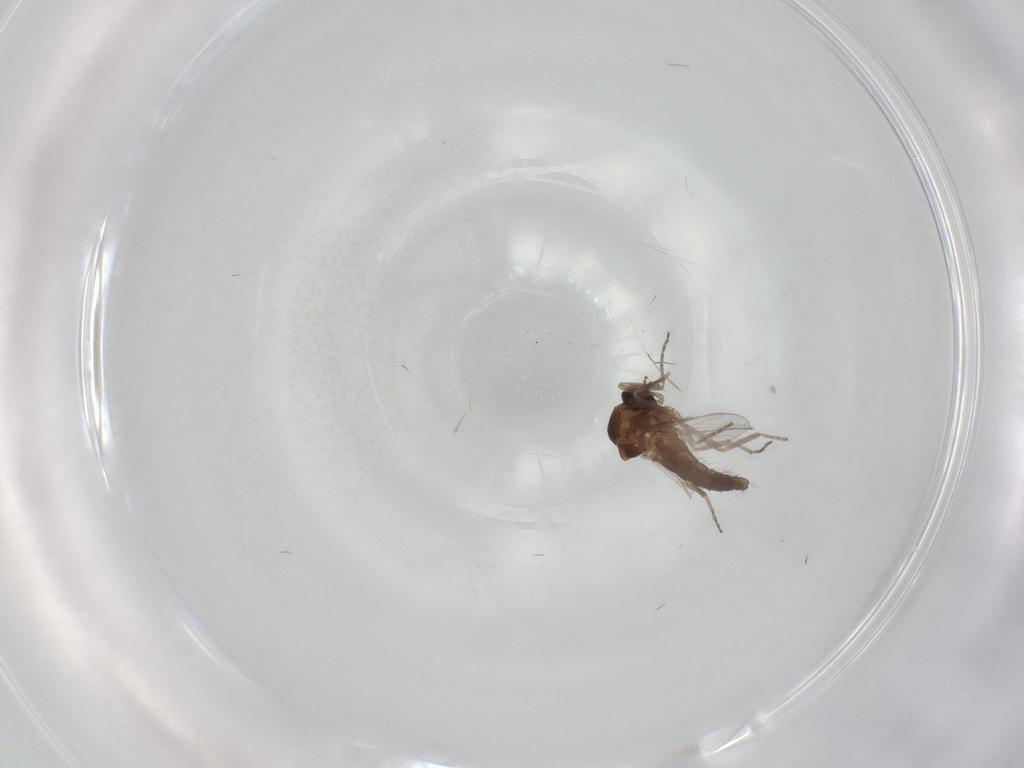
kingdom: Animalia
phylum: Arthropoda
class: Insecta
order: Diptera
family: Ceratopogonidae
